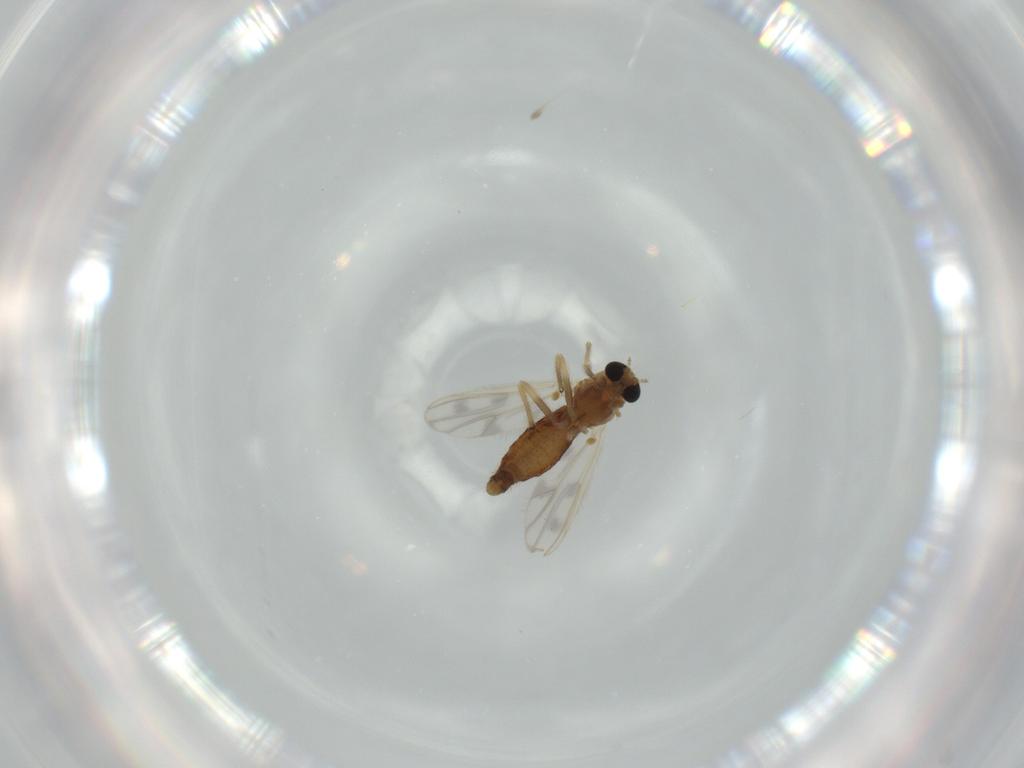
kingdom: Animalia
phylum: Arthropoda
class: Insecta
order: Diptera
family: Chironomidae
